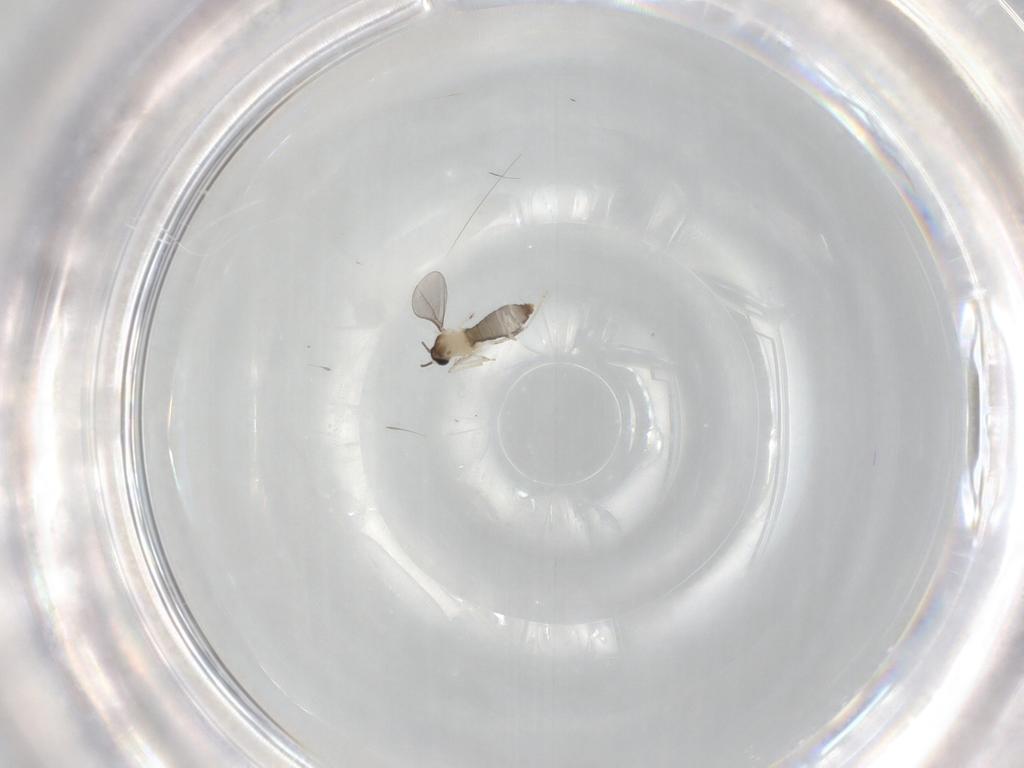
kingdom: Animalia
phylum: Arthropoda
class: Insecta
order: Diptera
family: Cecidomyiidae
